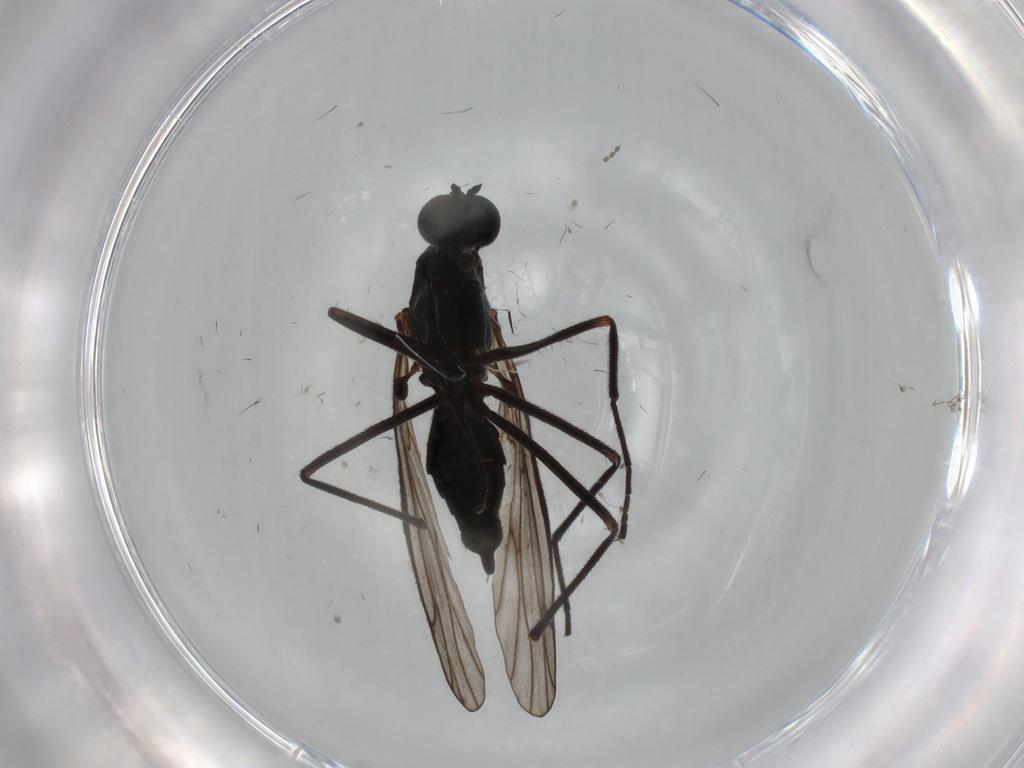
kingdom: Animalia
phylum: Arthropoda
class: Insecta
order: Diptera
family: Empididae
